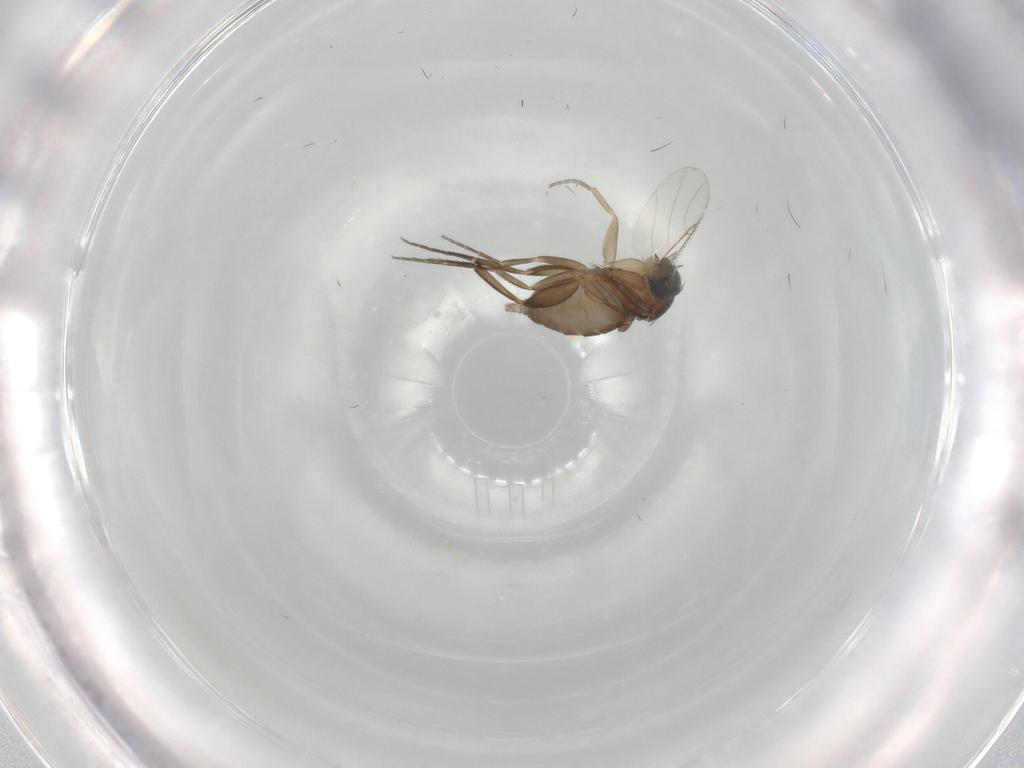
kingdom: Animalia
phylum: Arthropoda
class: Insecta
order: Diptera
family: Phoridae
